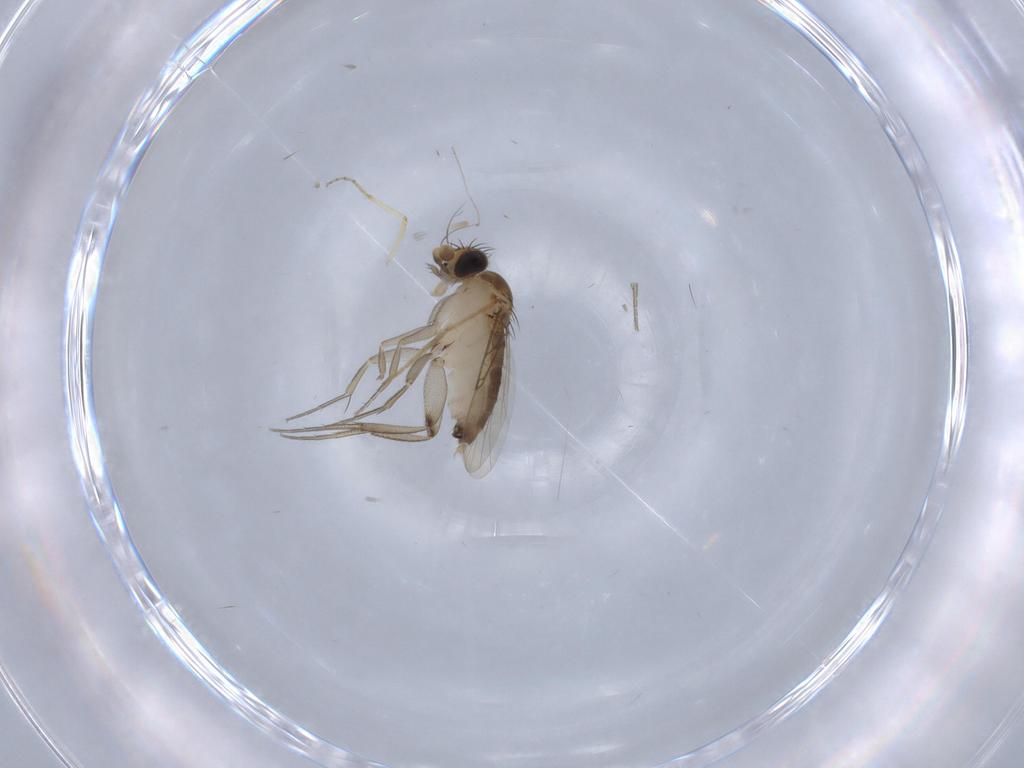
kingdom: Animalia
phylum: Arthropoda
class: Insecta
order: Diptera
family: Phoridae
